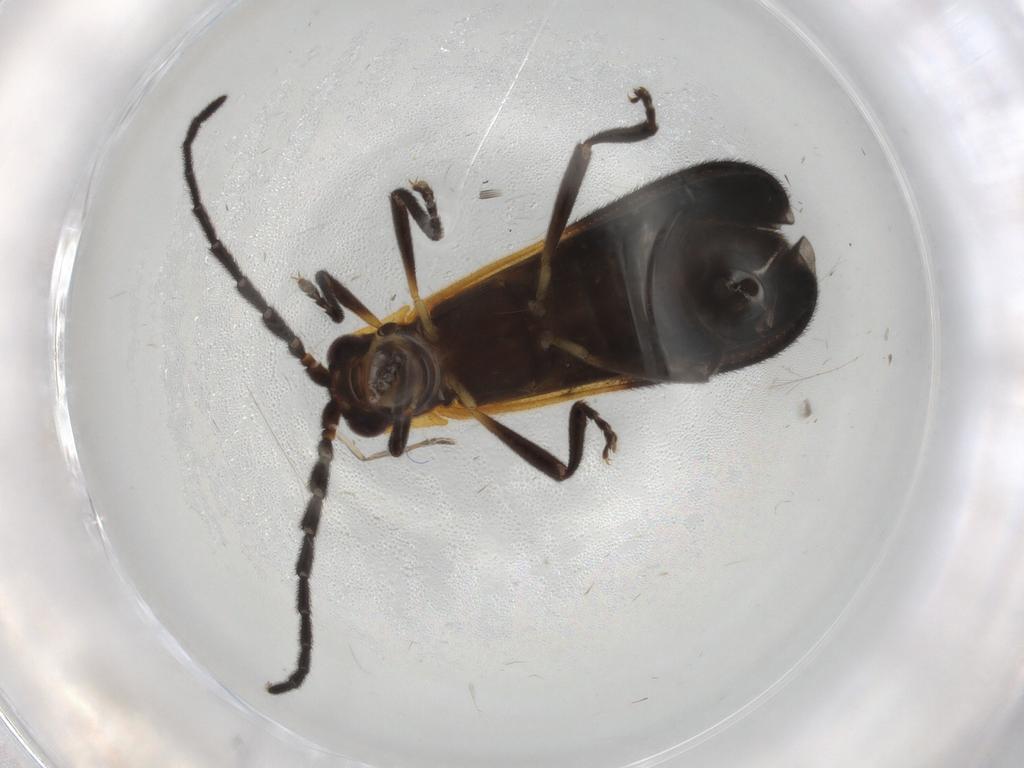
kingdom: Animalia
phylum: Arthropoda
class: Insecta
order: Coleoptera
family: Lycidae
